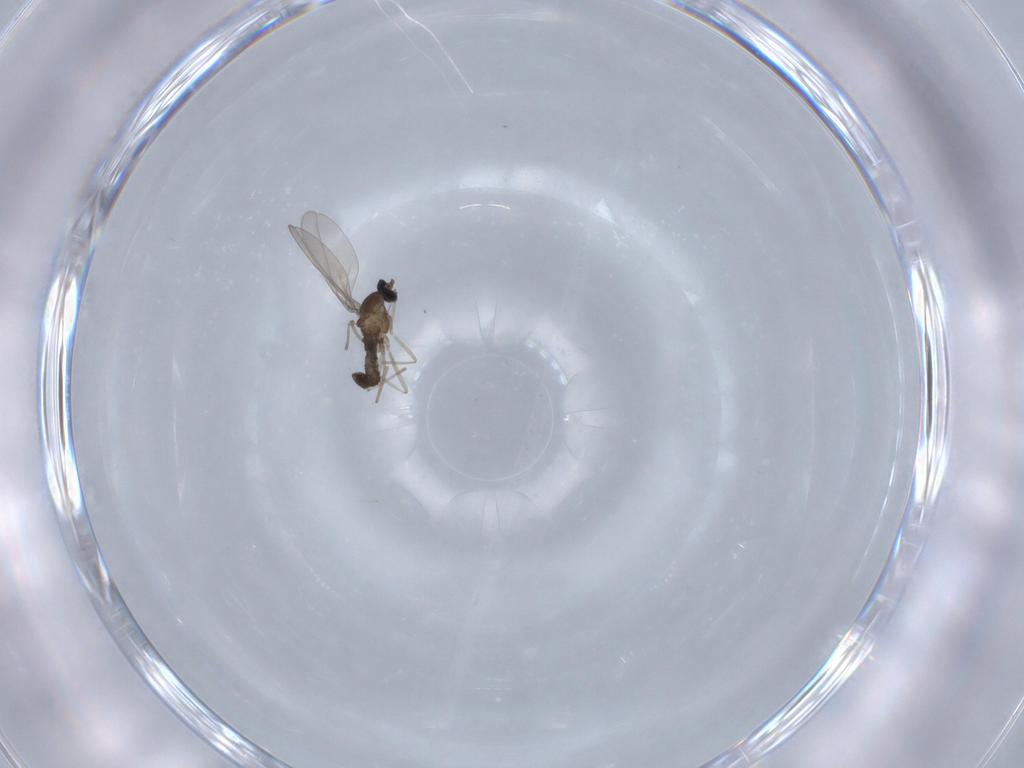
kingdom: Animalia
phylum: Arthropoda
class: Insecta
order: Diptera
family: Cecidomyiidae
